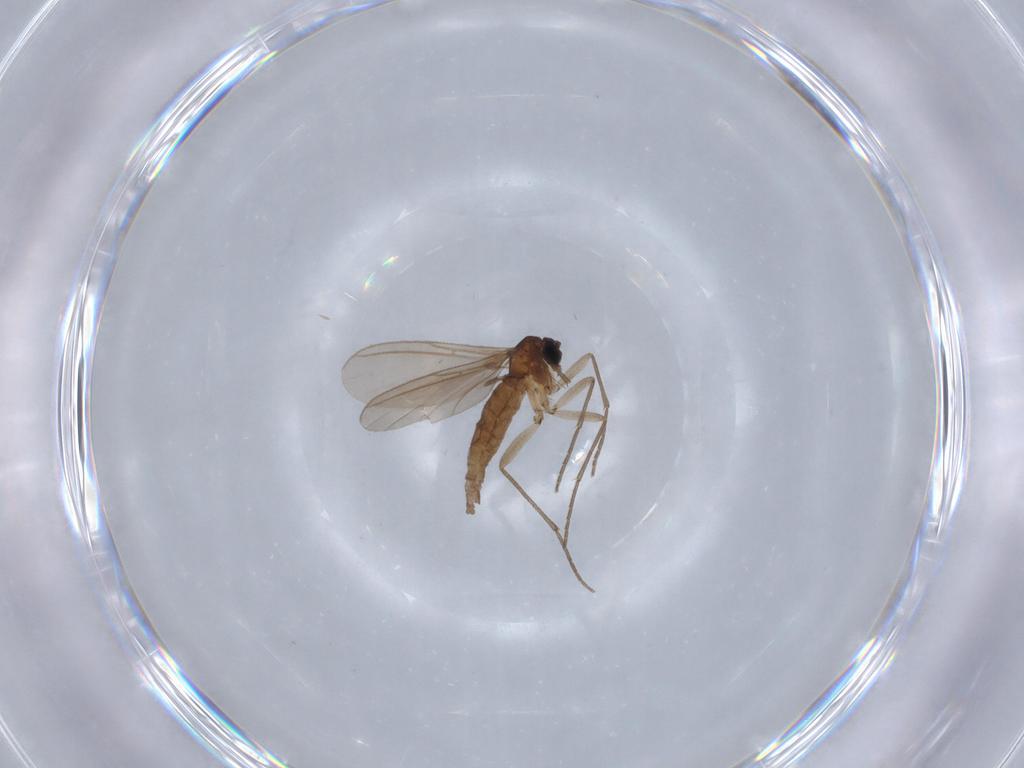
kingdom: Animalia
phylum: Arthropoda
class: Insecta
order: Diptera
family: Sciaridae
